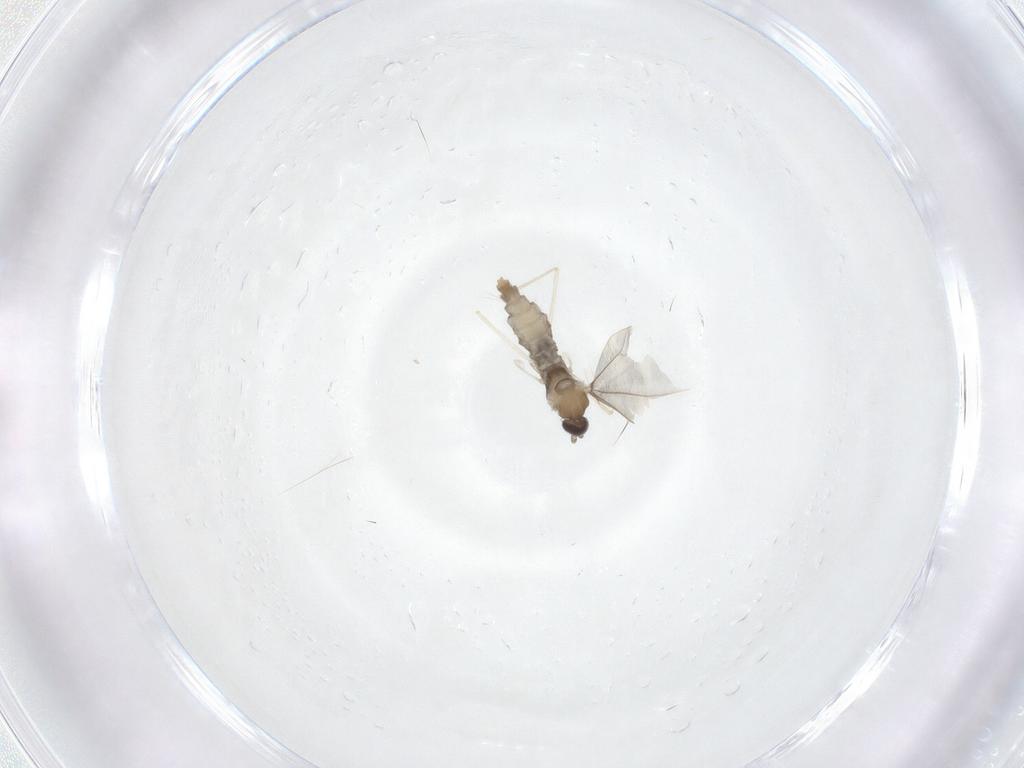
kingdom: Animalia
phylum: Arthropoda
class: Insecta
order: Diptera
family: Cecidomyiidae
